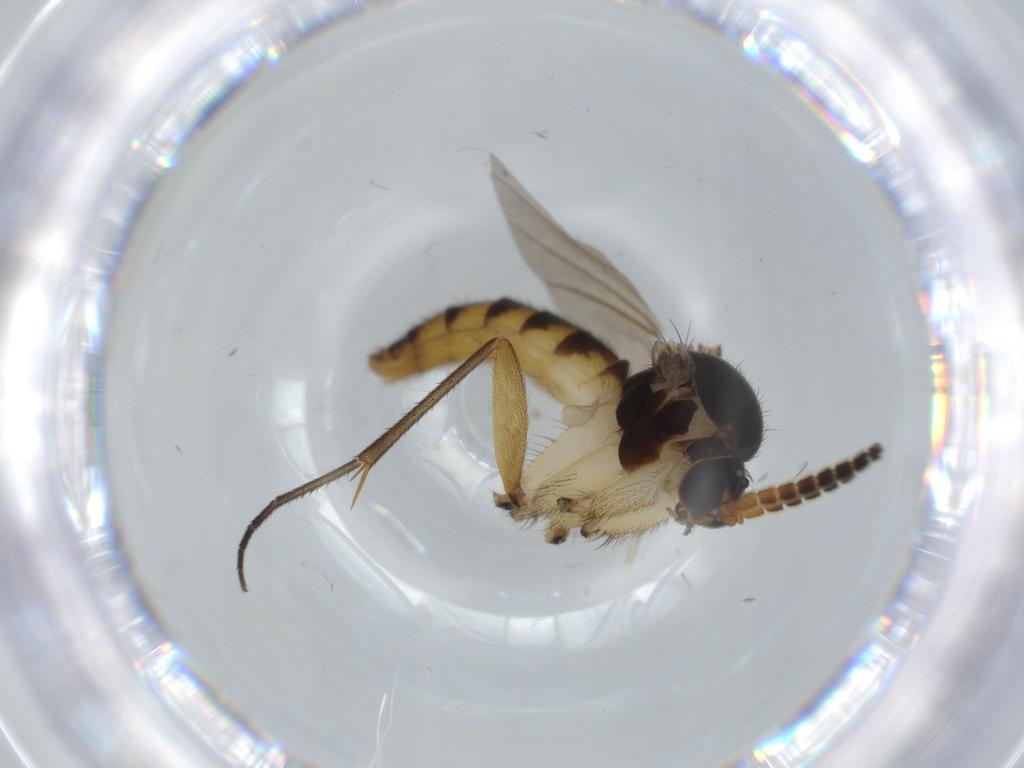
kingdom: Animalia
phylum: Arthropoda
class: Insecta
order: Diptera
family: Cecidomyiidae
